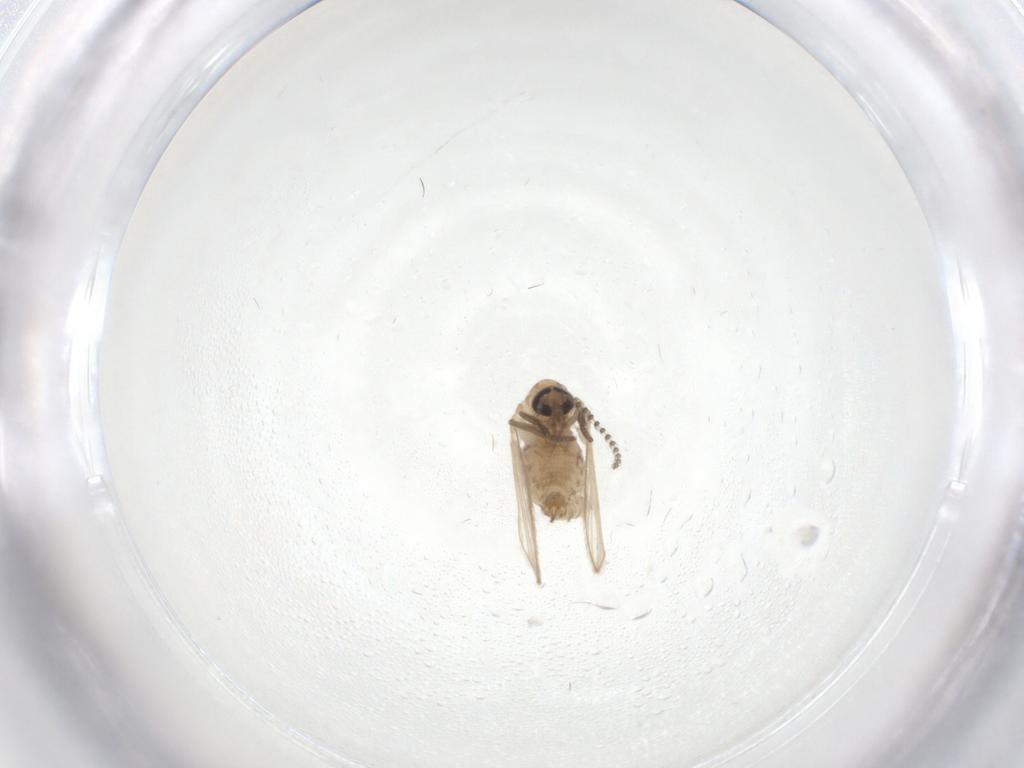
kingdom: Animalia
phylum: Arthropoda
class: Insecta
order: Diptera
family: Psychodidae
